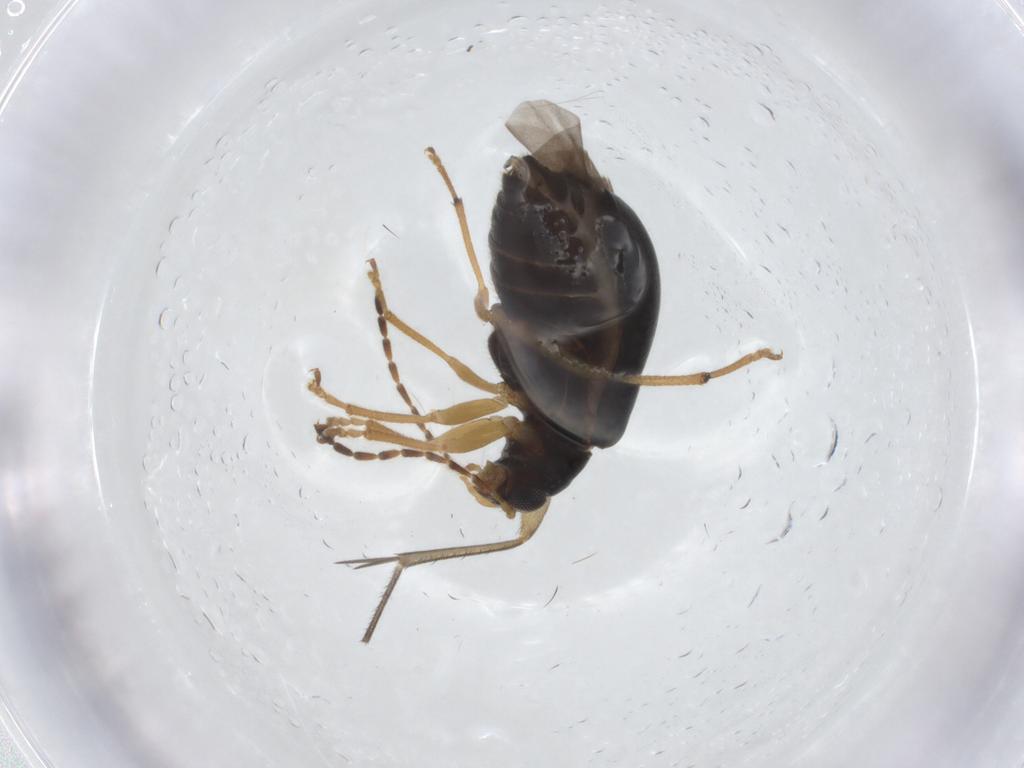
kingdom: Animalia
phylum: Arthropoda
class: Insecta
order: Coleoptera
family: Chrysomelidae
